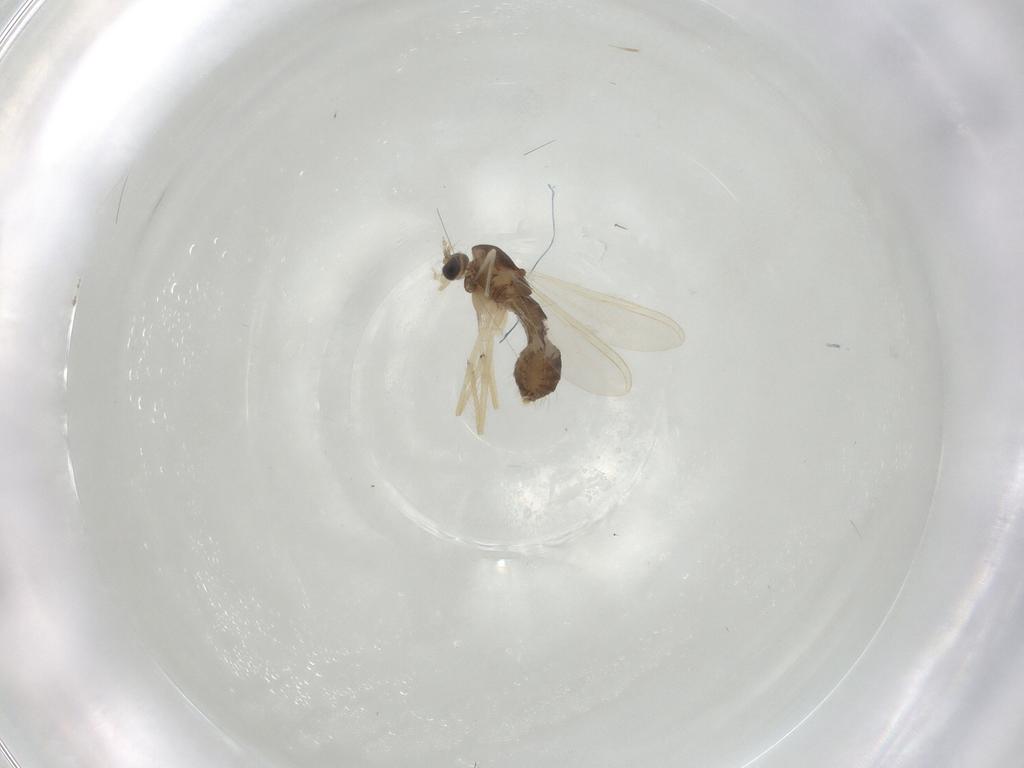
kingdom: Animalia
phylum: Arthropoda
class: Insecta
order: Diptera
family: Chironomidae
